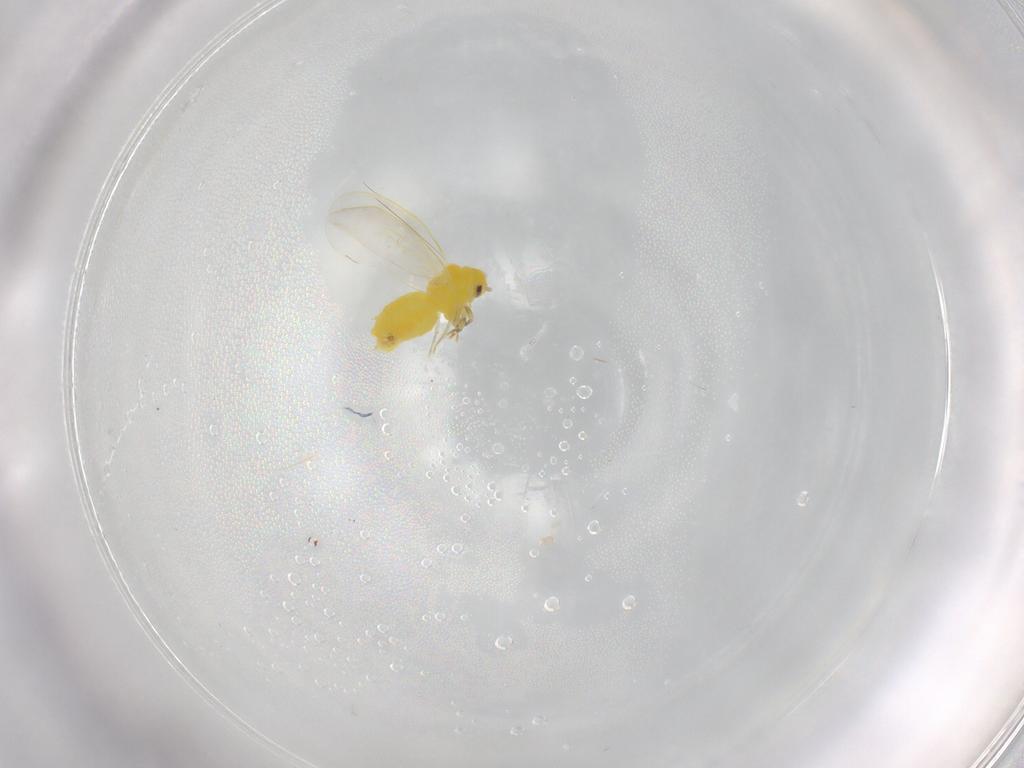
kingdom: Animalia
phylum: Arthropoda
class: Insecta
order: Hemiptera
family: Aleyrodidae
